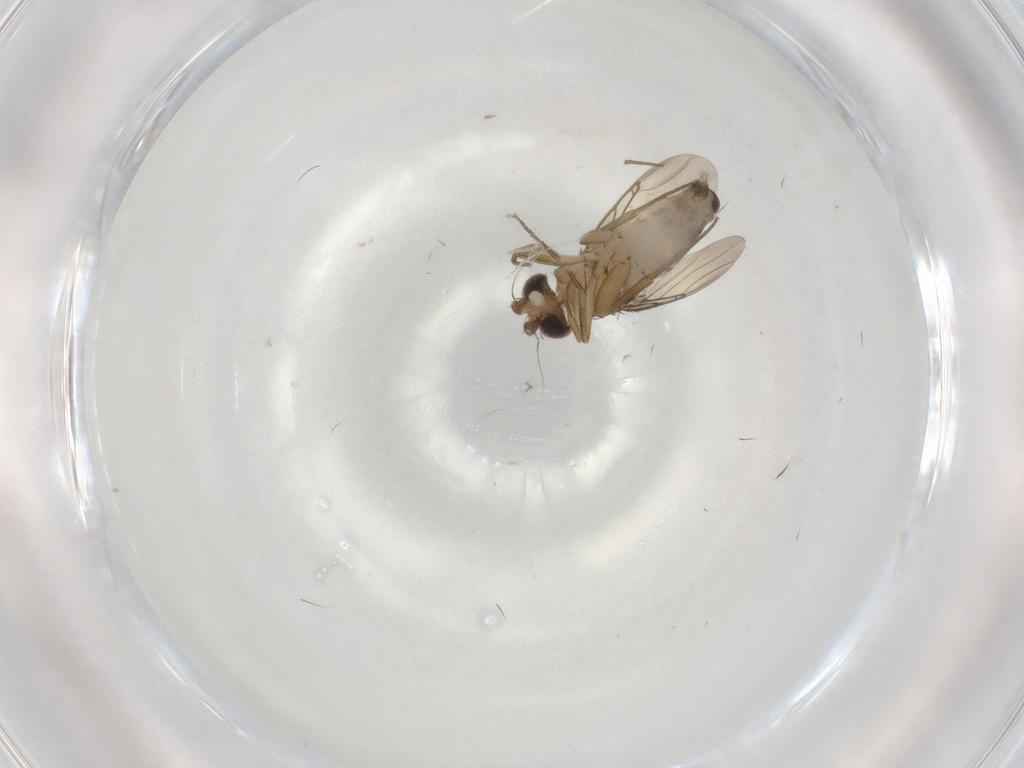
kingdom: Animalia
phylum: Arthropoda
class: Insecta
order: Diptera
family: Phoridae
